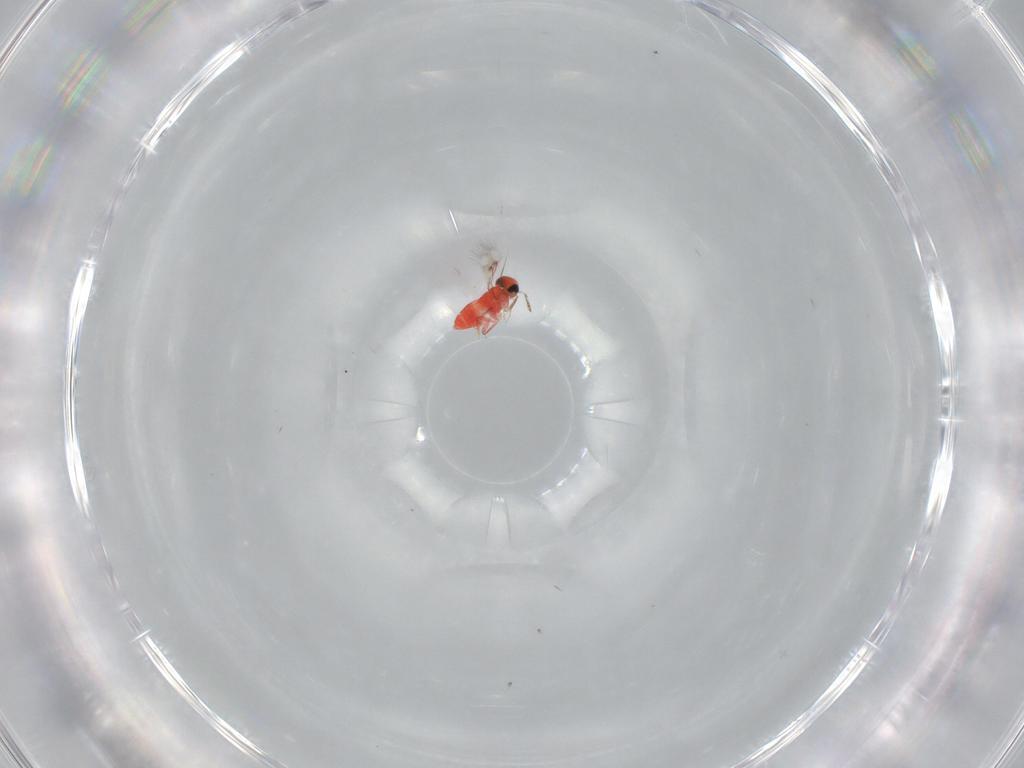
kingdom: Animalia
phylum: Arthropoda
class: Insecta
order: Hymenoptera
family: Trichogrammatidae
